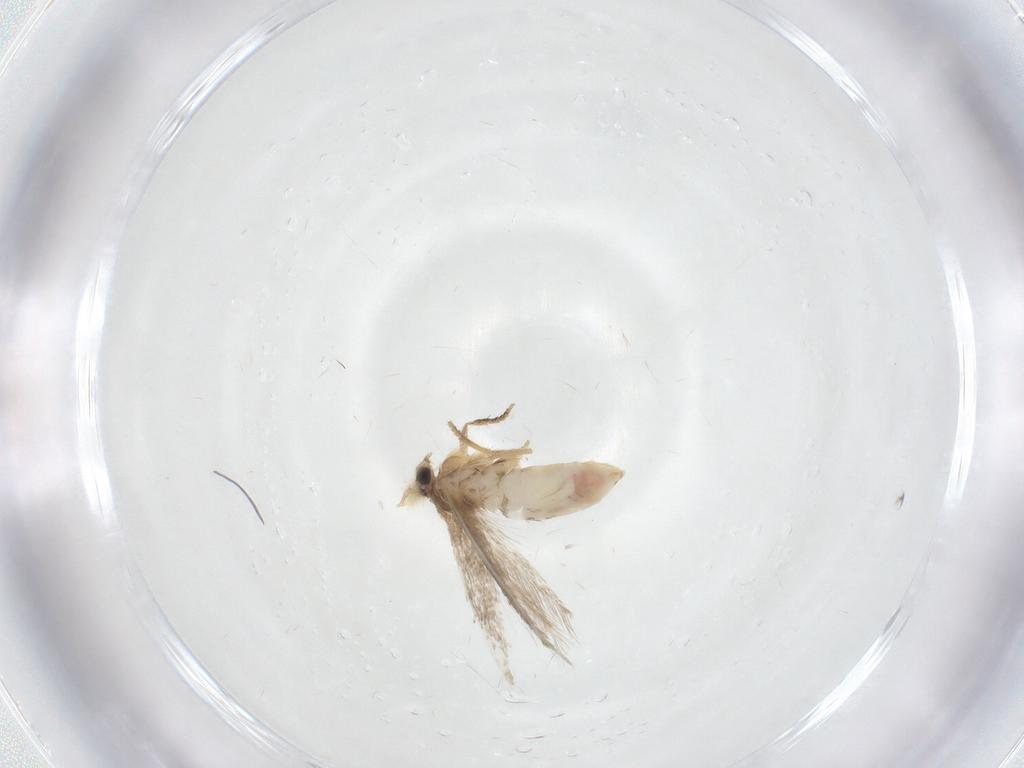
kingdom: Animalia
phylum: Arthropoda
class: Insecta
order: Lepidoptera
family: Nepticulidae
